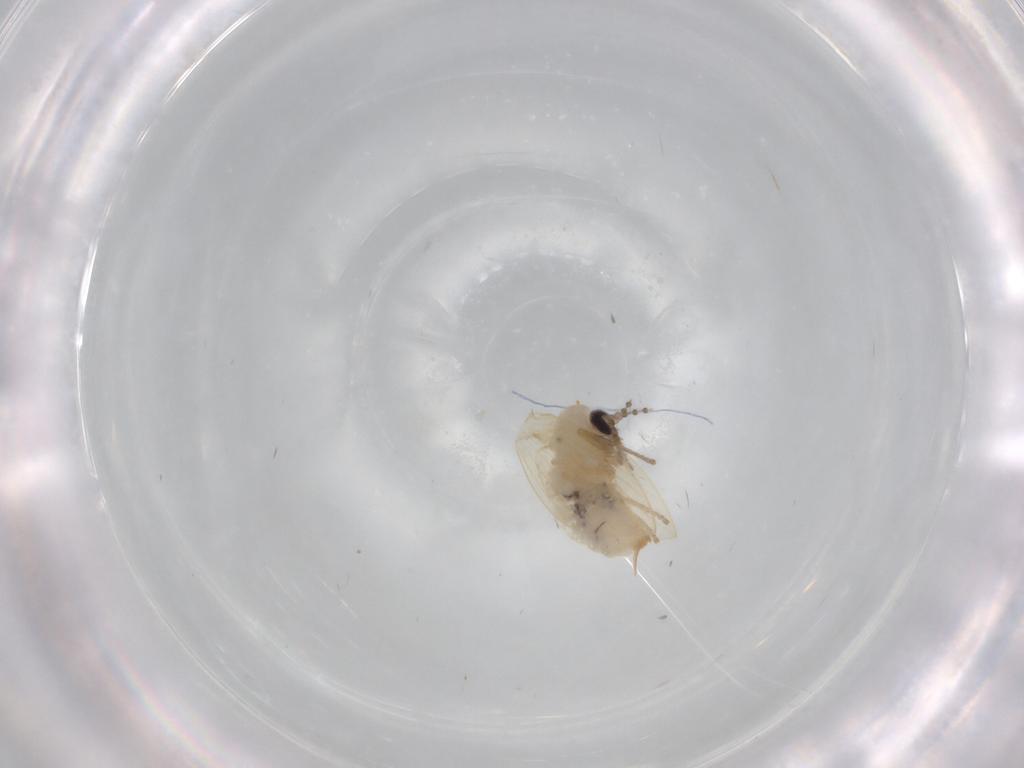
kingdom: Animalia
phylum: Arthropoda
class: Insecta
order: Diptera
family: Psychodidae
